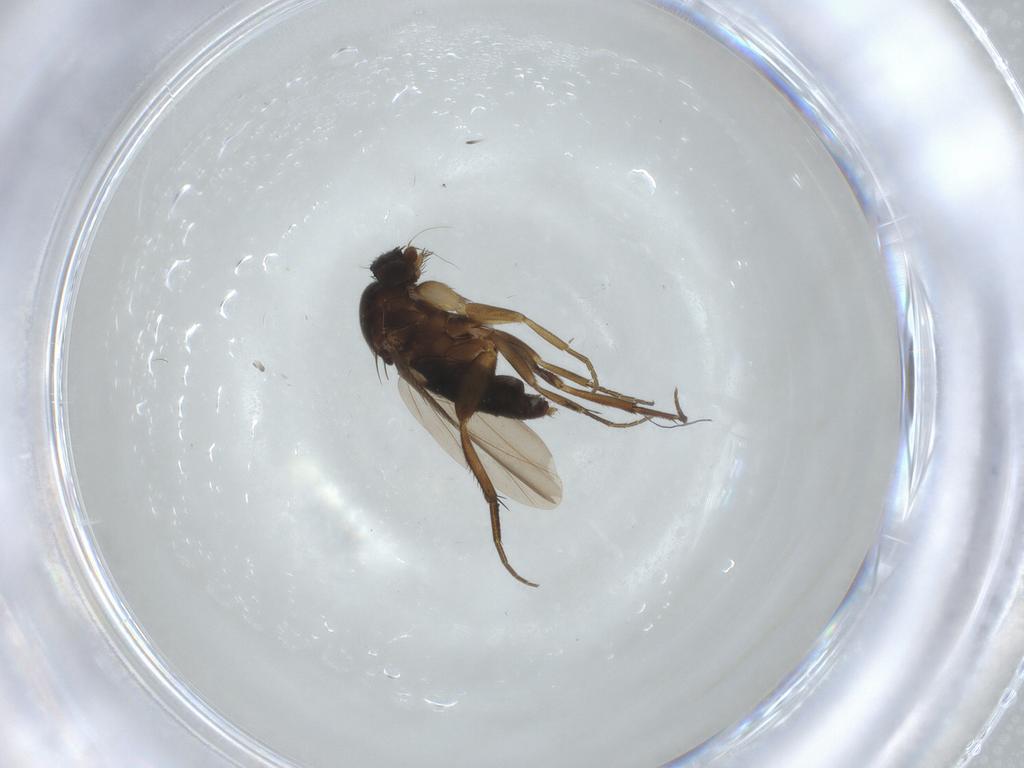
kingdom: Animalia
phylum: Arthropoda
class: Insecta
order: Diptera
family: Phoridae
